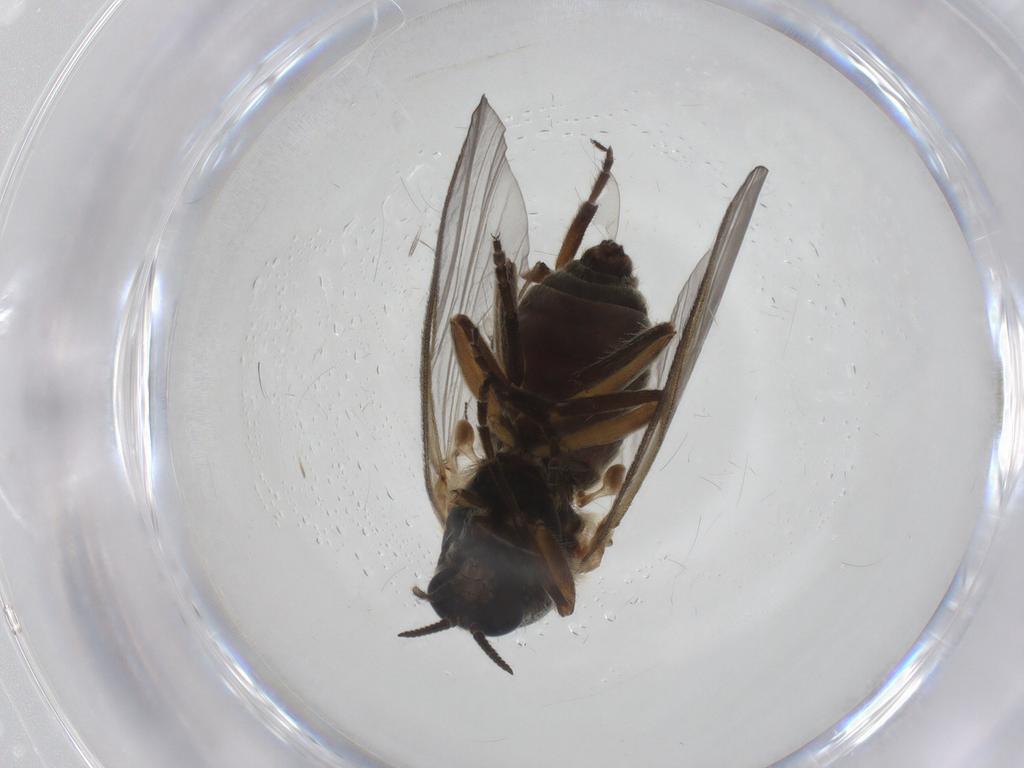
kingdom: Animalia
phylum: Arthropoda
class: Insecta
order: Diptera
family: Simuliidae
